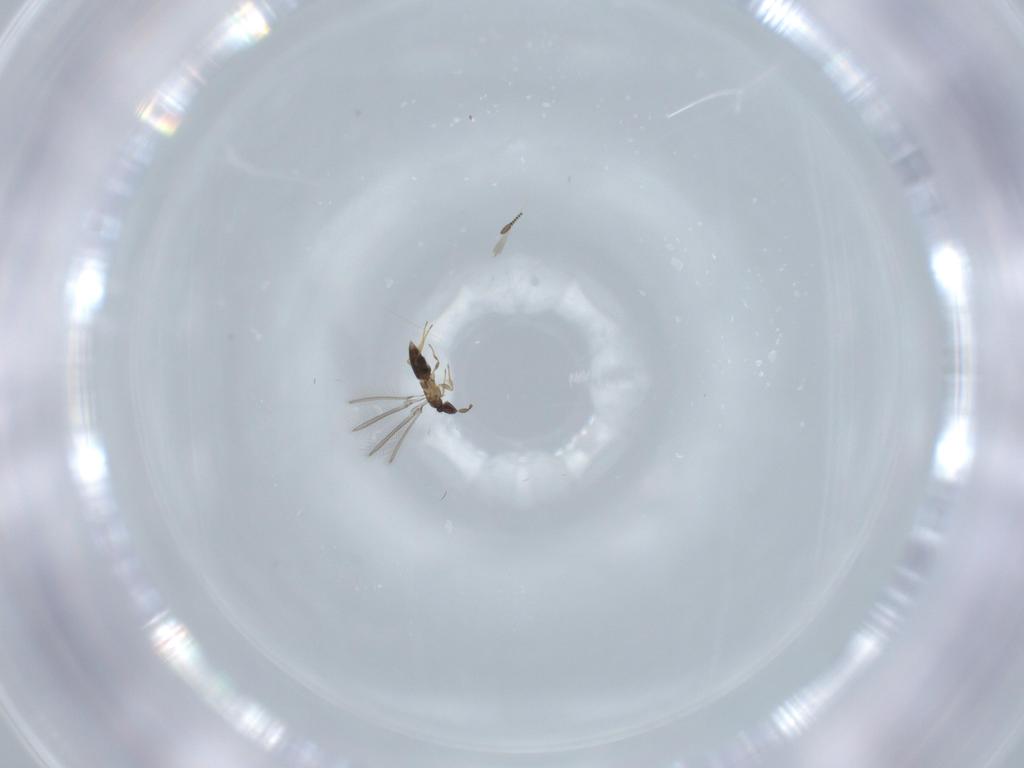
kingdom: Animalia
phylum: Arthropoda
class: Insecta
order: Hymenoptera
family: Mymaridae
